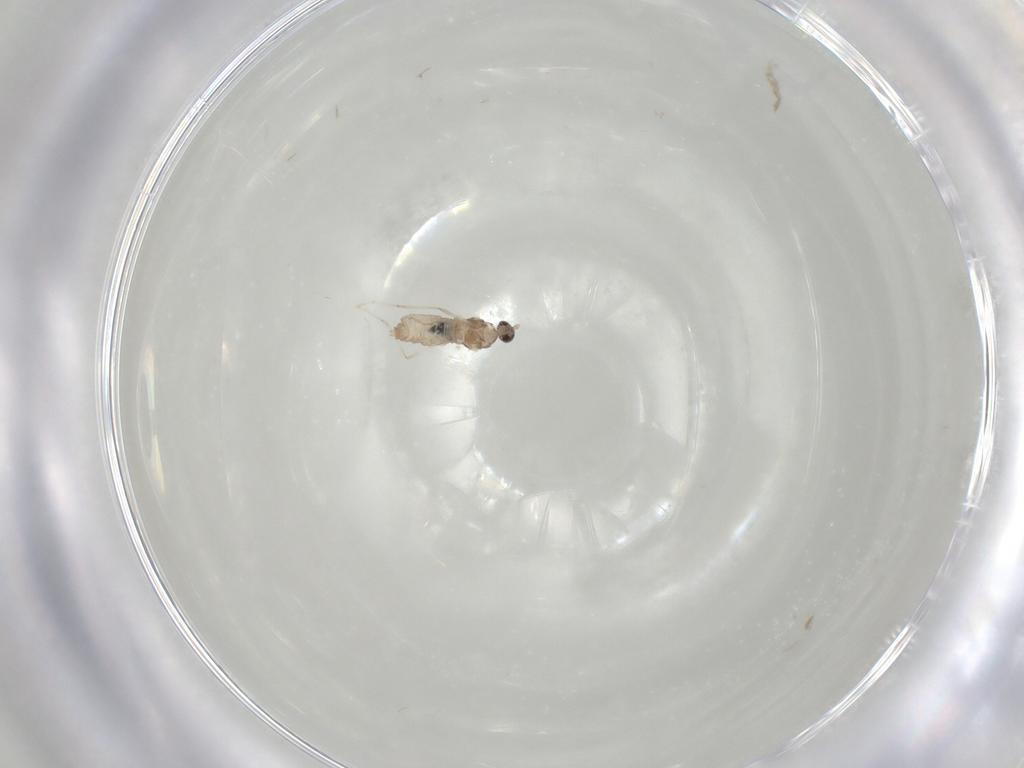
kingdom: Animalia
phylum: Arthropoda
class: Insecta
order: Diptera
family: Cecidomyiidae
